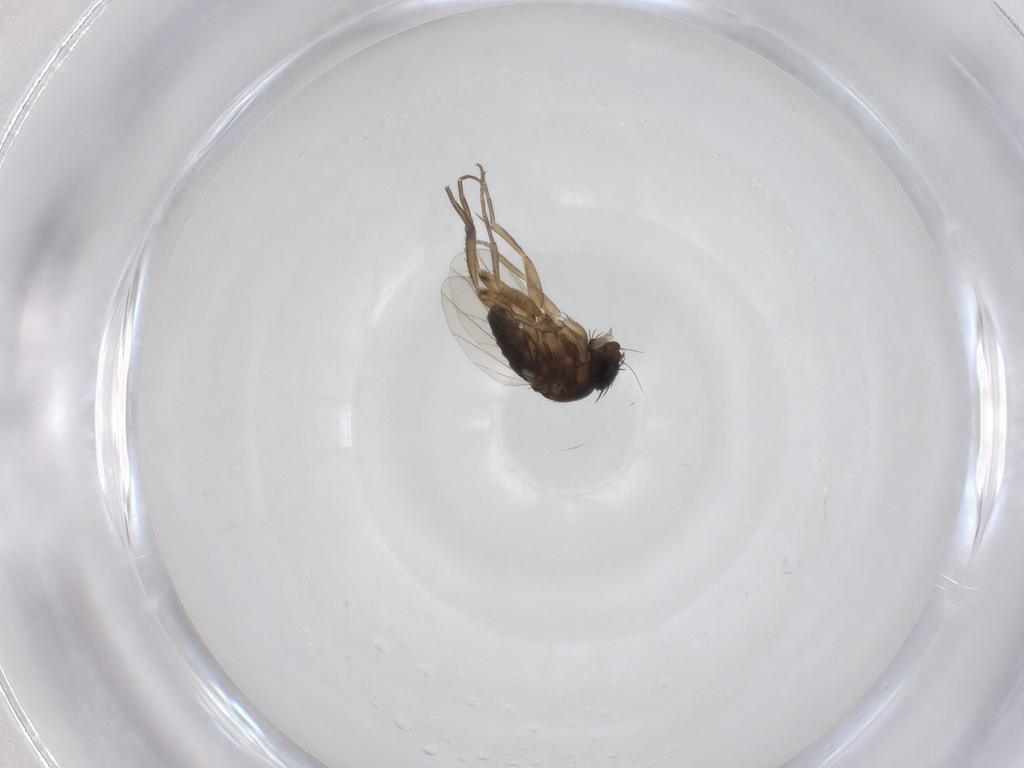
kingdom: Animalia
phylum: Arthropoda
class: Insecta
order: Diptera
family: Phoridae
